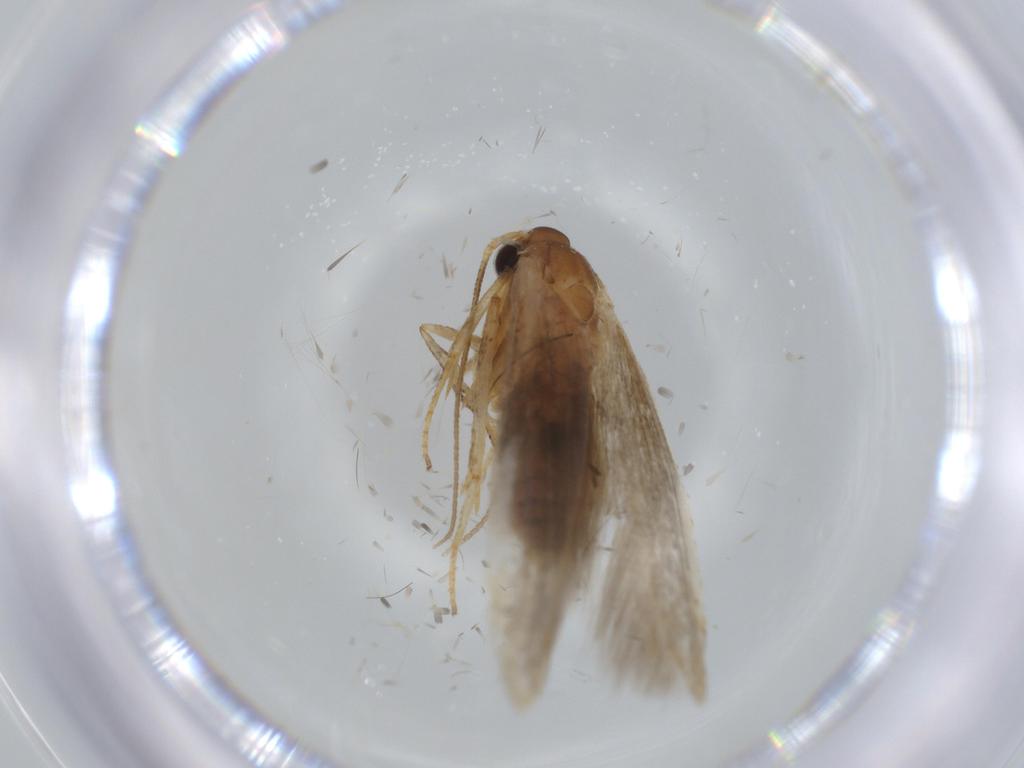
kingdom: Animalia
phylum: Arthropoda
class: Insecta
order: Lepidoptera
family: Coleophoridae
